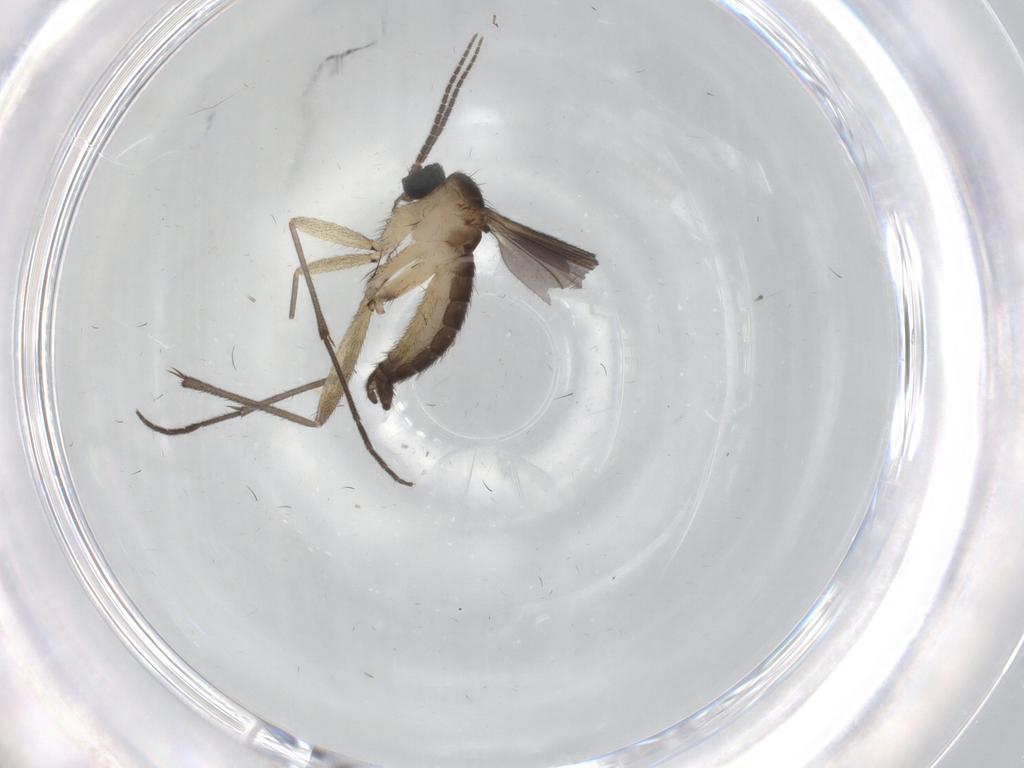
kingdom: Animalia
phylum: Arthropoda
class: Insecta
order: Diptera
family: Sciaridae
